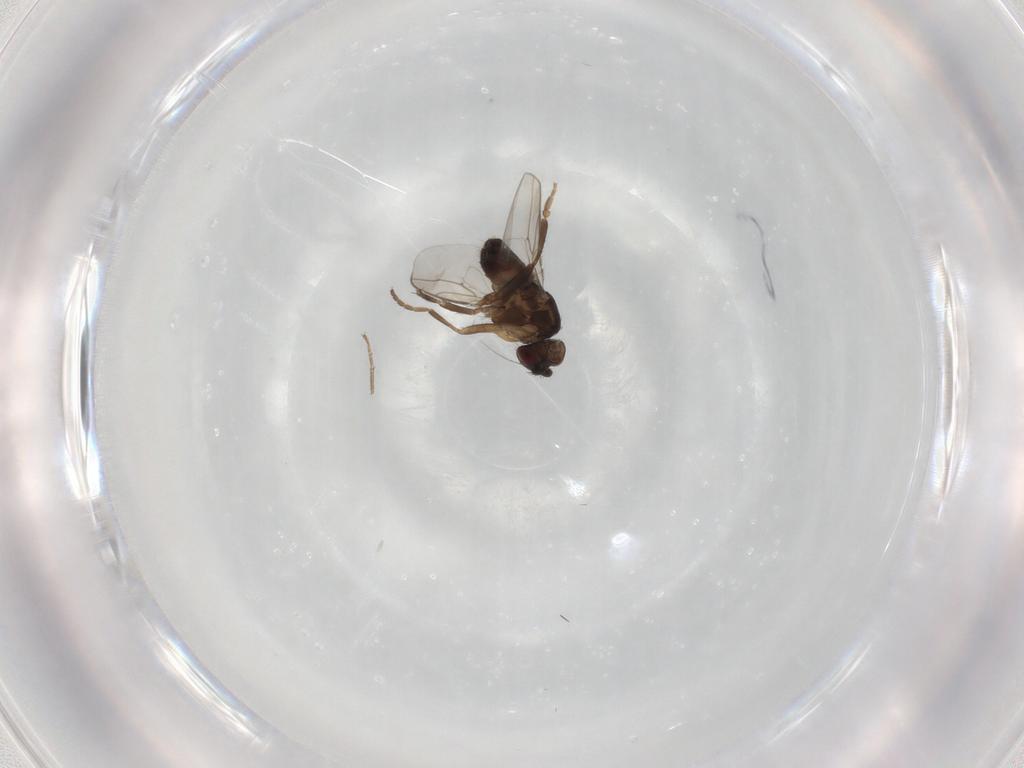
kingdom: Animalia
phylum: Arthropoda
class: Insecta
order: Diptera
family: Sphaeroceridae
